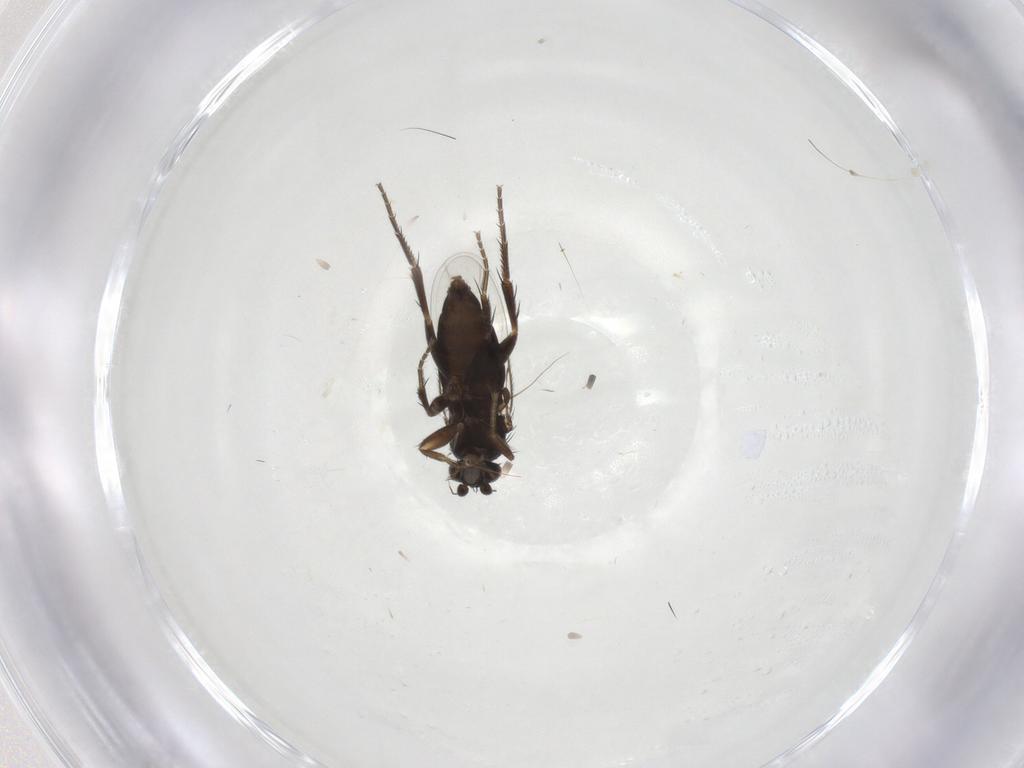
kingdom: Animalia
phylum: Arthropoda
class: Insecta
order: Diptera
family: Phoridae
